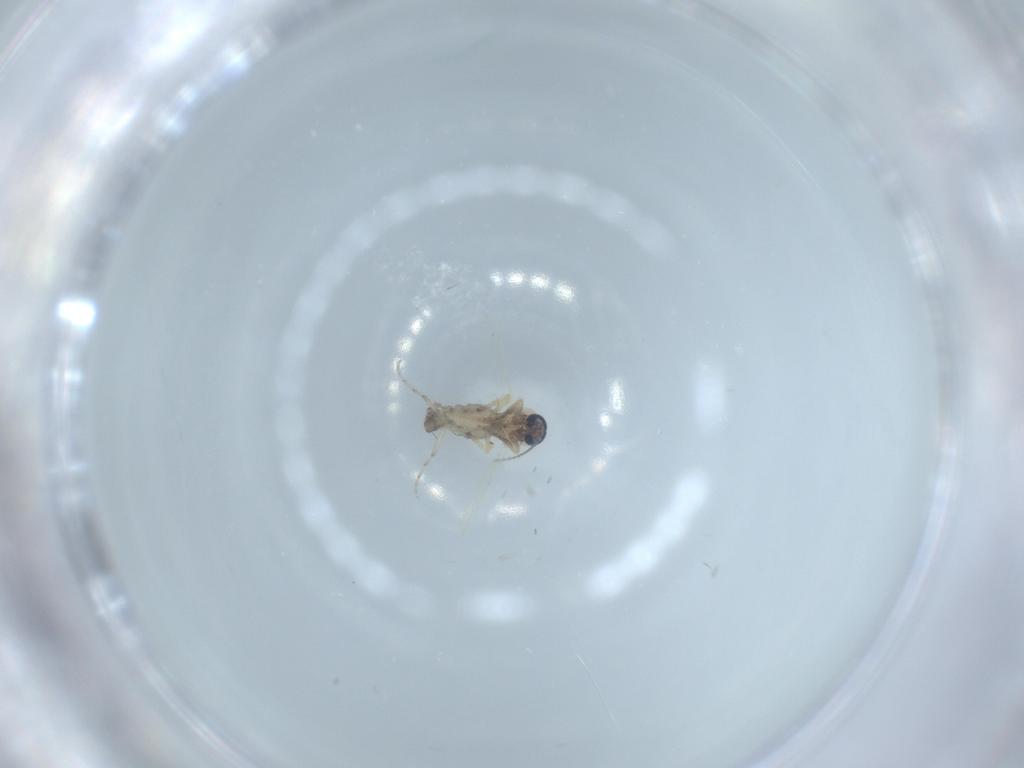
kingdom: Animalia
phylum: Arthropoda
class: Insecta
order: Diptera
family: Ceratopogonidae
